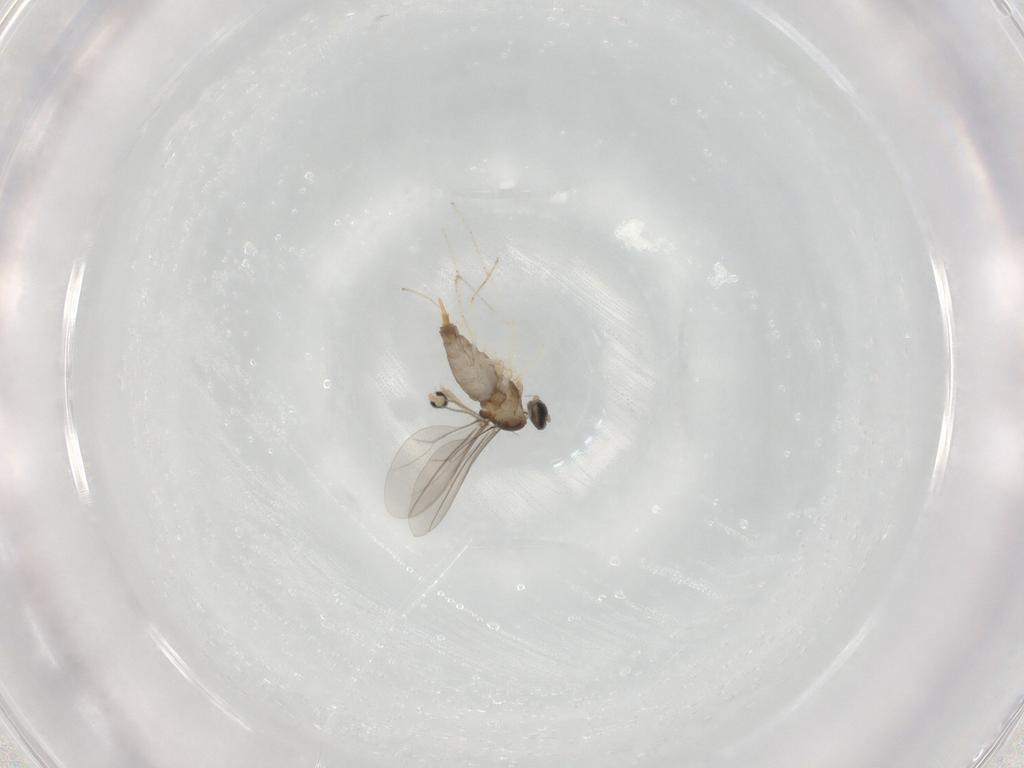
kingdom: Animalia
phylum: Arthropoda
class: Insecta
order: Diptera
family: Cecidomyiidae
